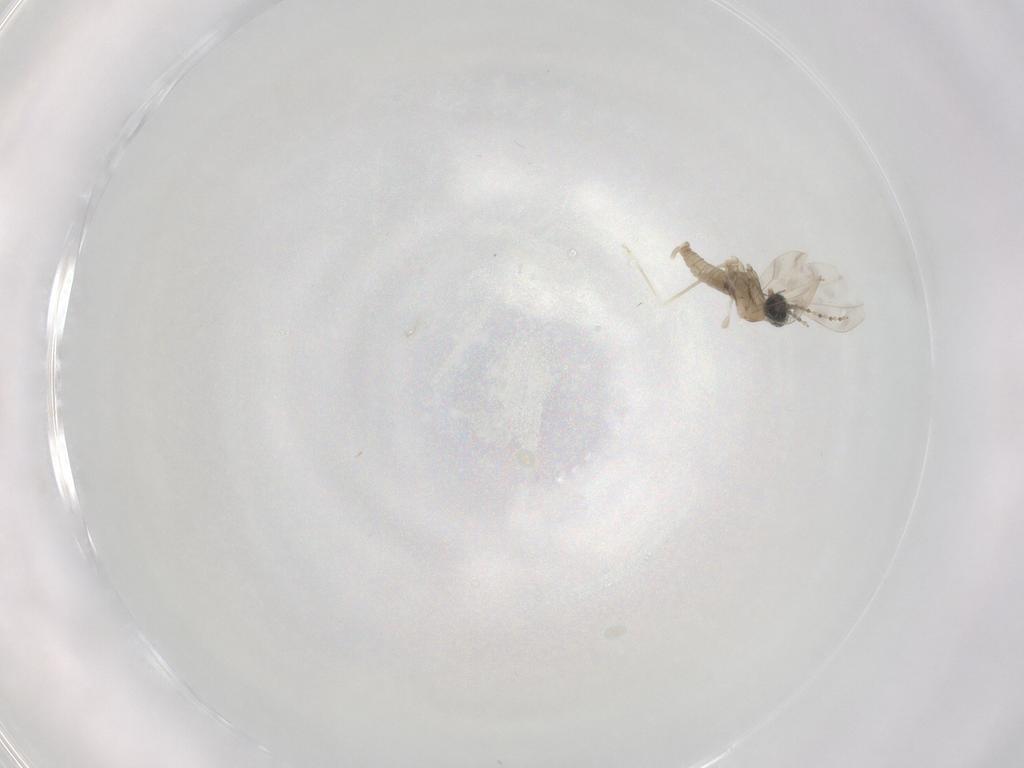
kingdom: Animalia
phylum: Arthropoda
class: Insecta
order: Diptera
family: Cecidomyiidae
